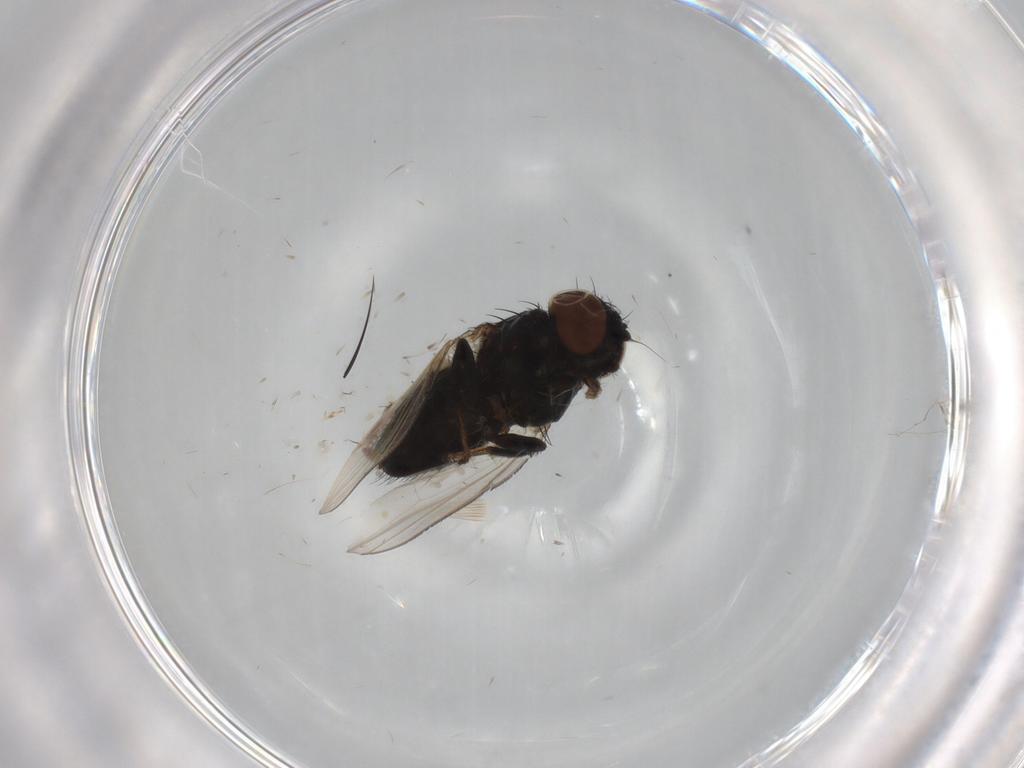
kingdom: Animalia
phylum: Arthropoda
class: Insecta
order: Diptera
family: Milichiidae
